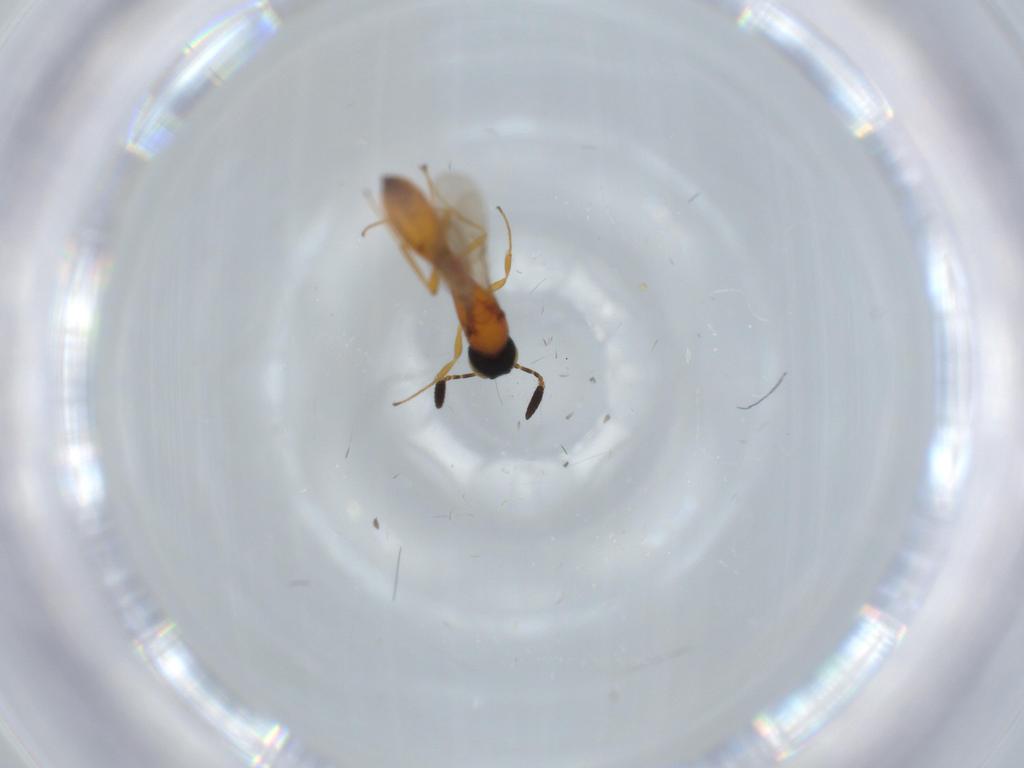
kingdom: Animalia
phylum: Arthropoda
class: Insecta
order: Hymenoptera
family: Scelionidae
